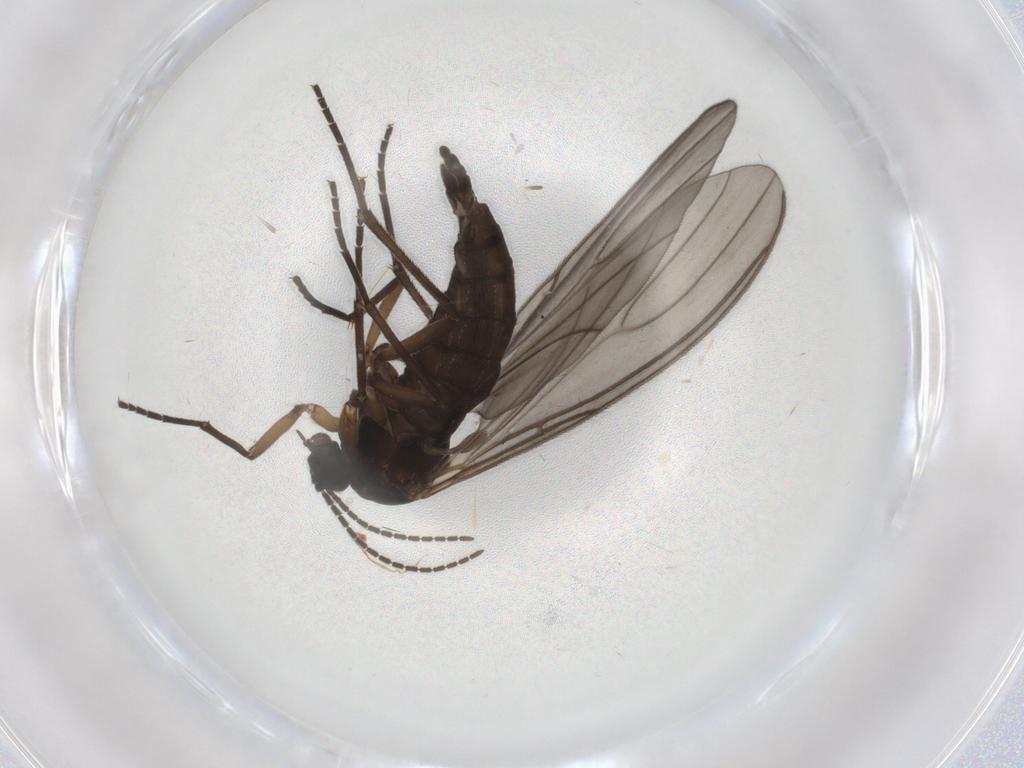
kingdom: Animalia
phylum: Arthropoda
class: Insecta
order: Diptera
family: Sciaridae
